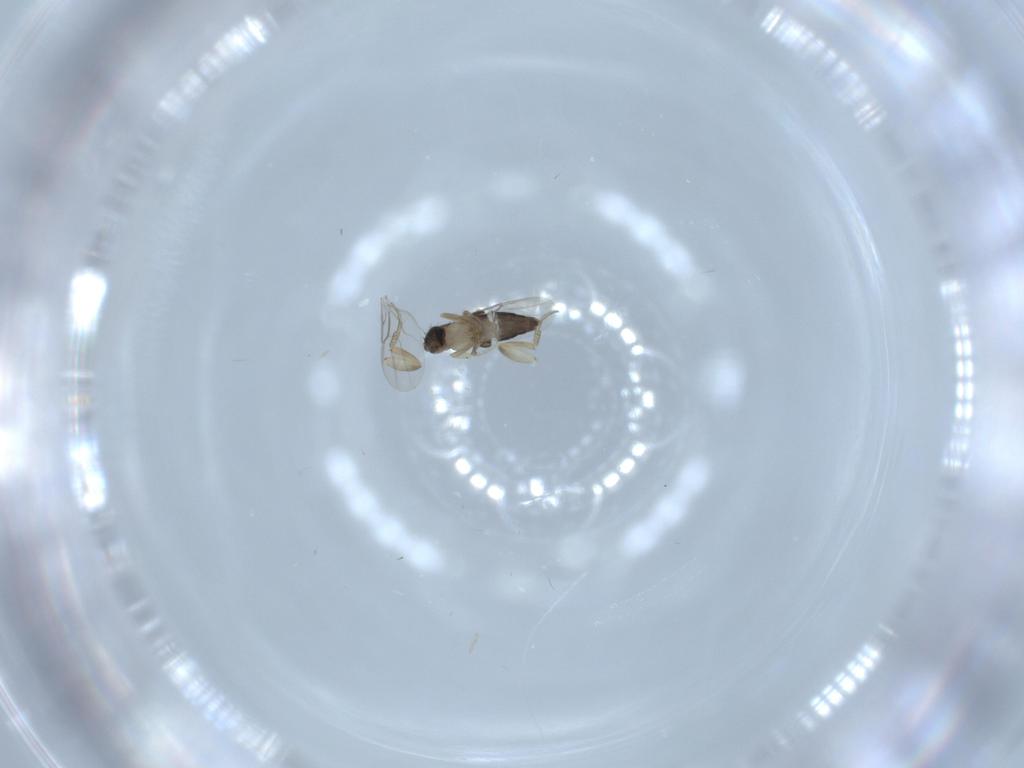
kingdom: Animalia
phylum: Arthropoda
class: Insecta
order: Diptera
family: Phoridae
